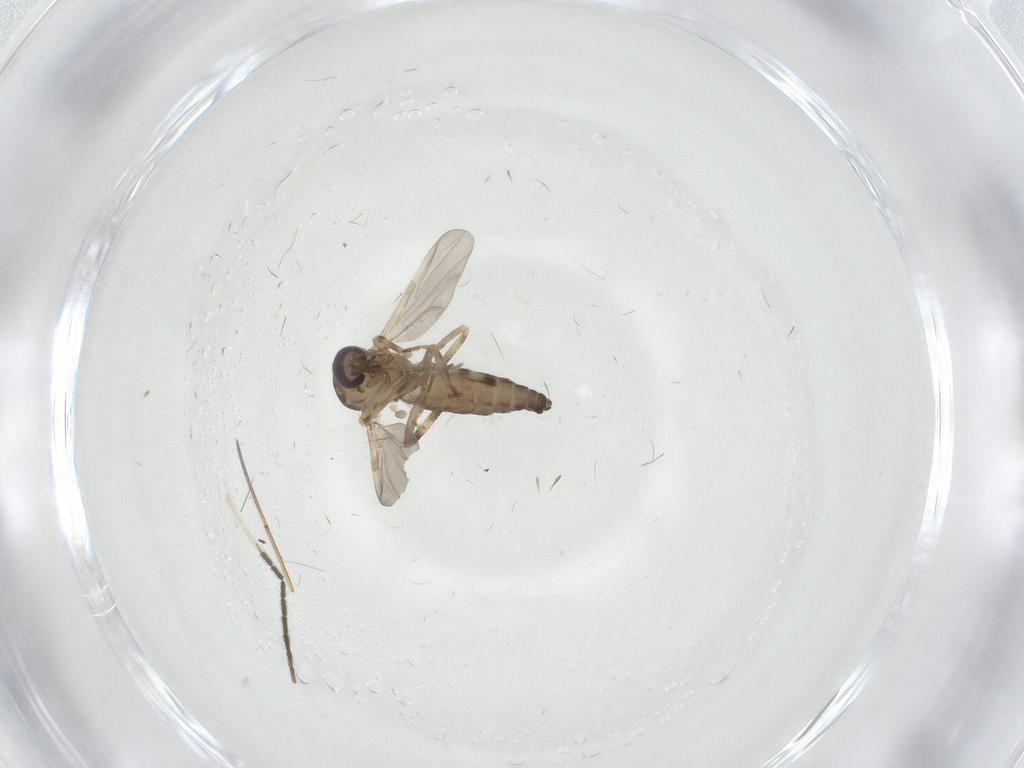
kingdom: Animalia
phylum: Arthropoda
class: Insecta
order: Diptera
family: Ceratopogonidae
